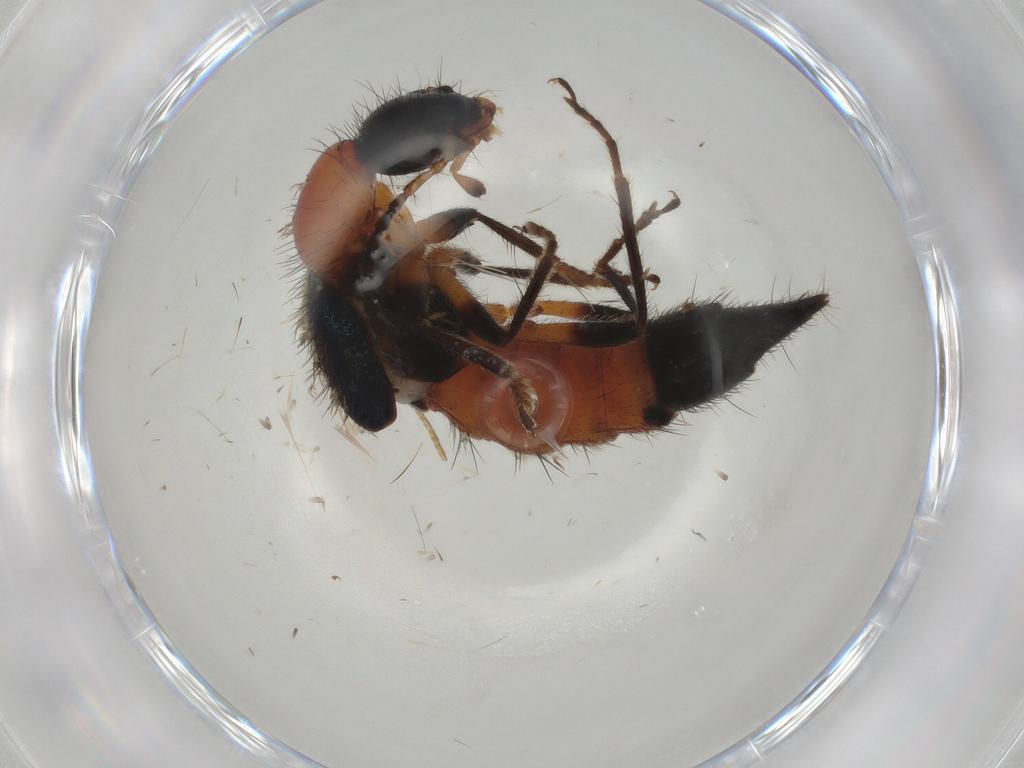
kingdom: Animalia
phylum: Arthropoda
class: Insecta
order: Coleoptera
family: Staphylinidae
